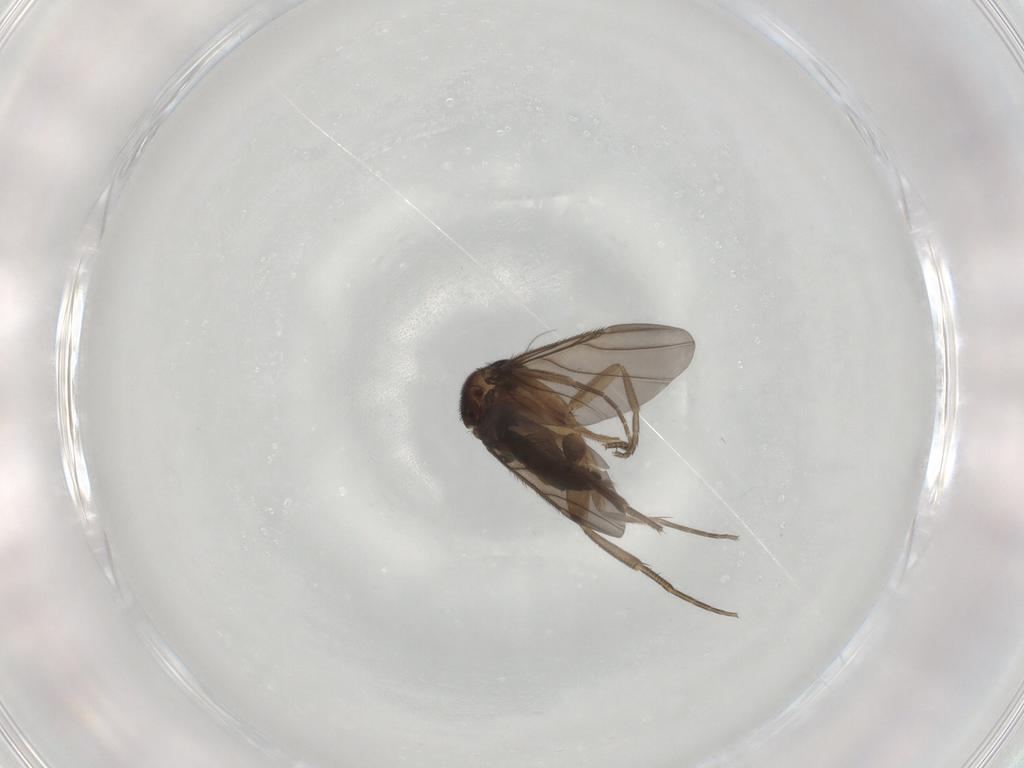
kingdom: Animalia
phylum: Arthropoda
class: Insecta
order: Diptera
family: Phoridae
